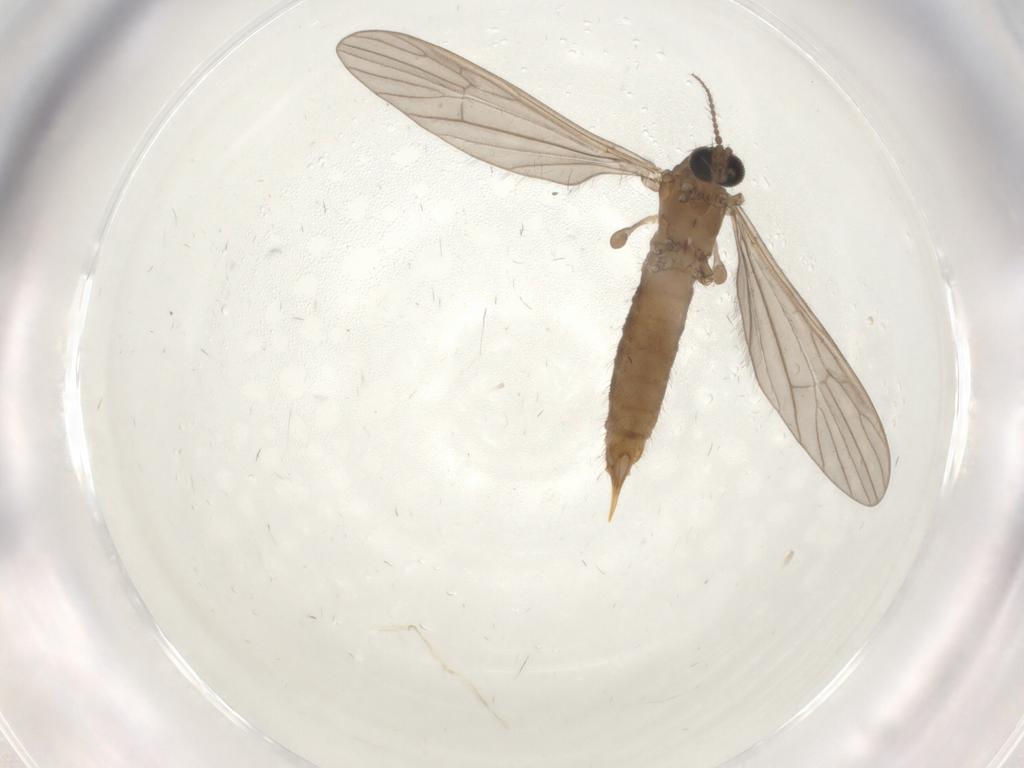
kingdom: Animalia
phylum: Arthropoda
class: Insecta
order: Diptera
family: Limoniidae
